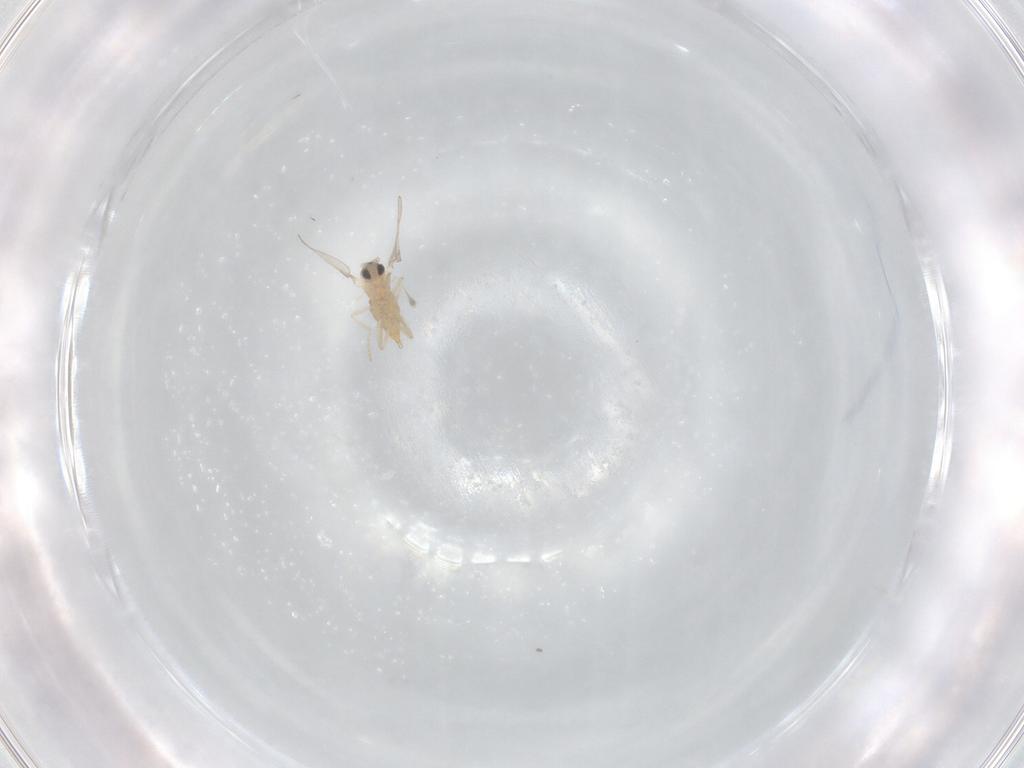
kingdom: Animalia
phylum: Arthropoda
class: Insecta
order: Diptera
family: Cecidomyiidae
